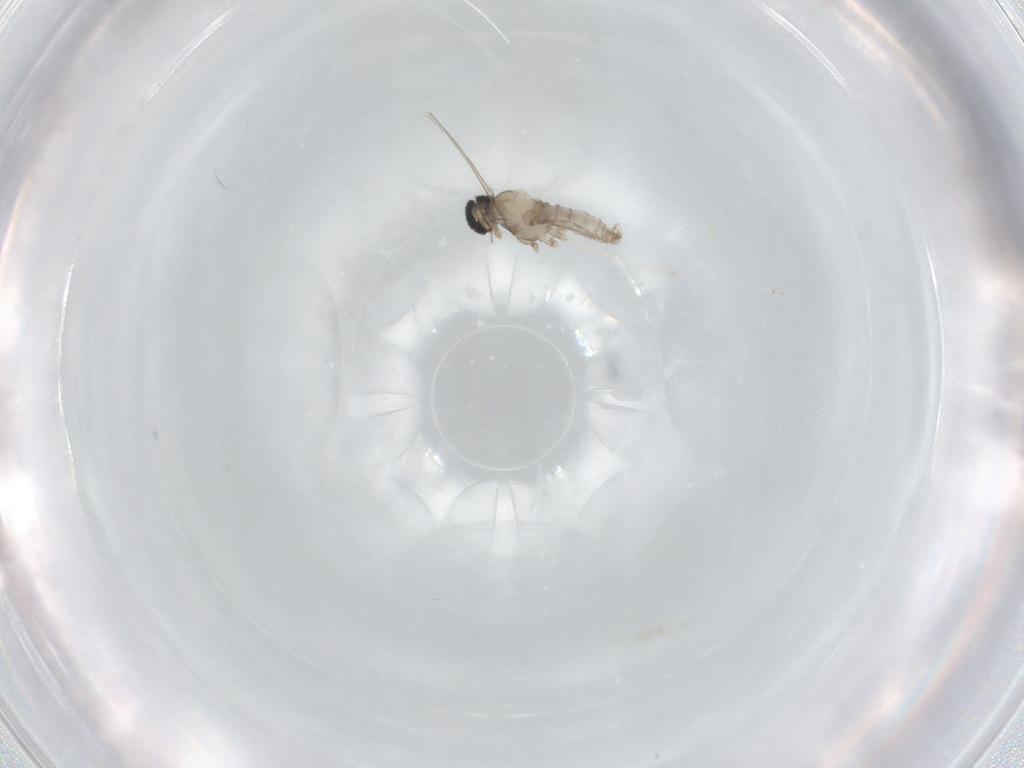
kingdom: Animalia
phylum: Arthropoda
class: Insecta
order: Diptera
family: Cecidomyiidae
